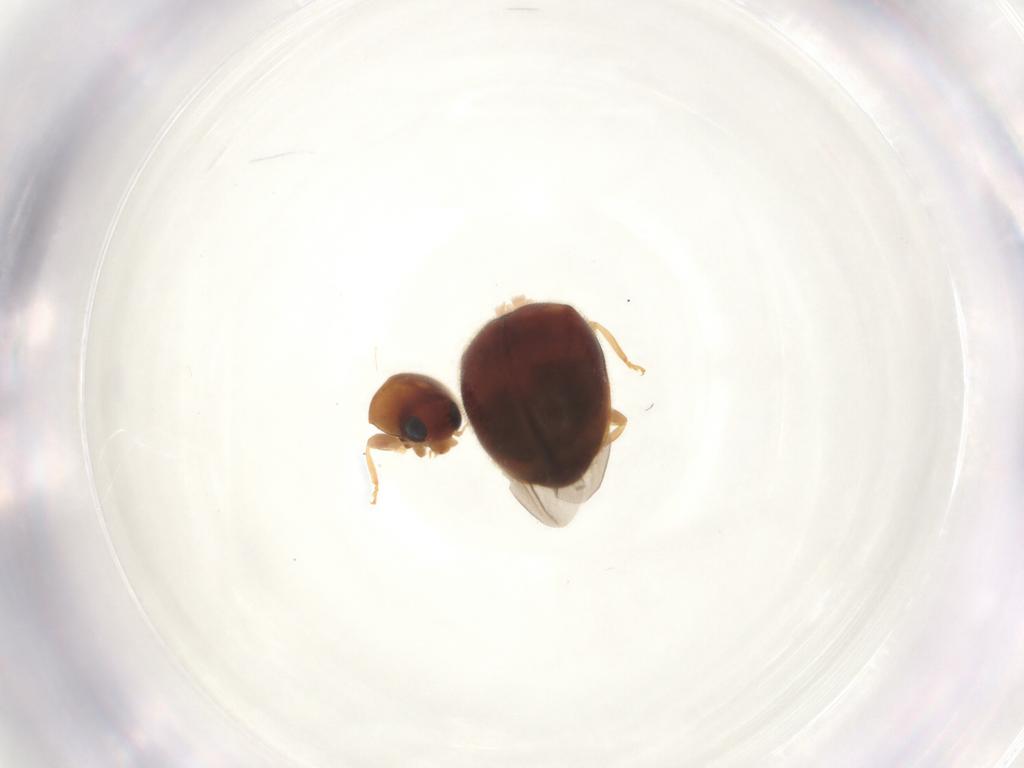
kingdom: Animalia
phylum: Arthropoda
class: Insecta
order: Coleoptera
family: Coccinellidae
